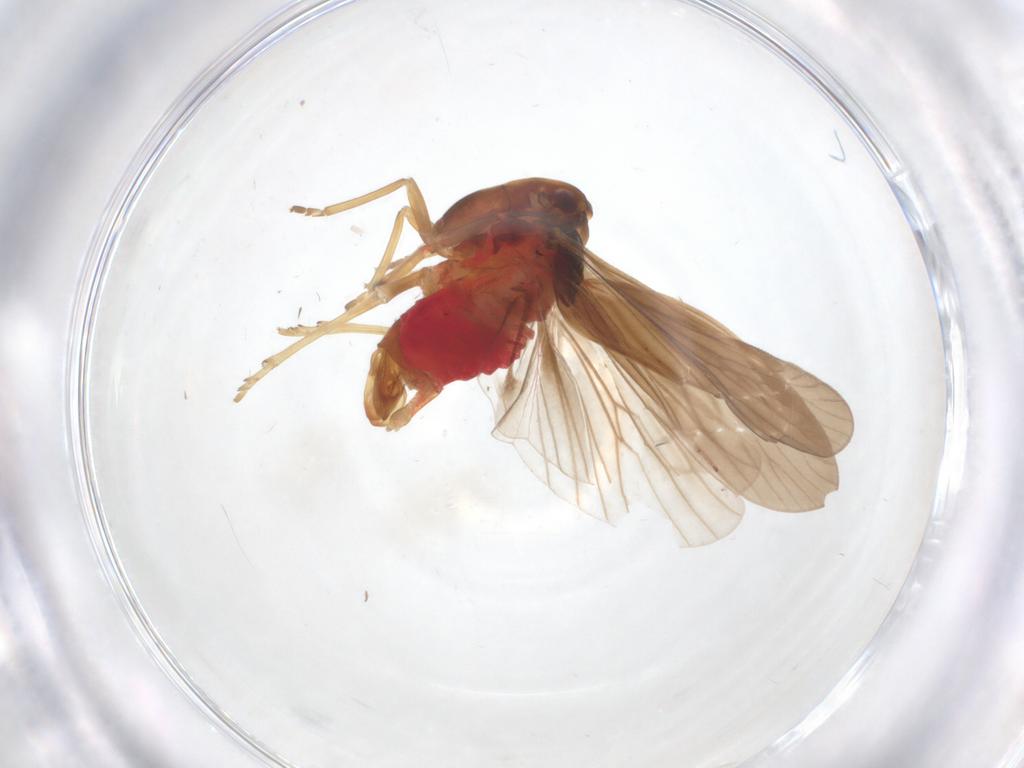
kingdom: Animalia
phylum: Arthropoda
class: Insecta
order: Hemiptera
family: Derbidae
